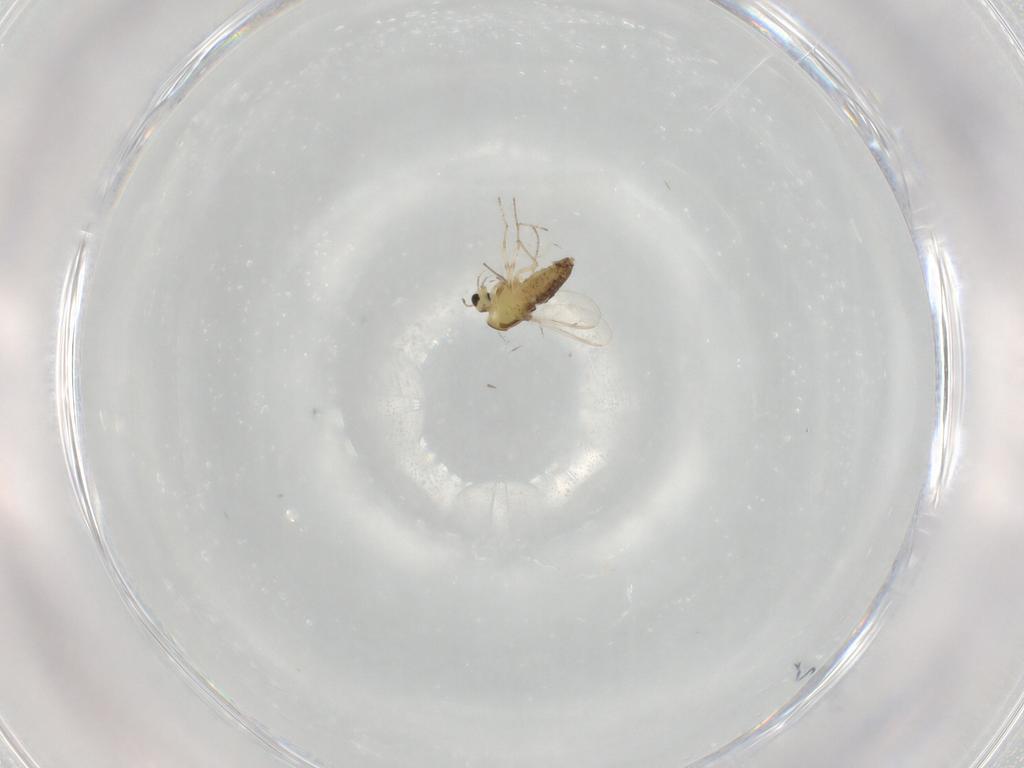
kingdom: Animalia
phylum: Arthropoda
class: Insecta
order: Diptera
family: Chironomidae
